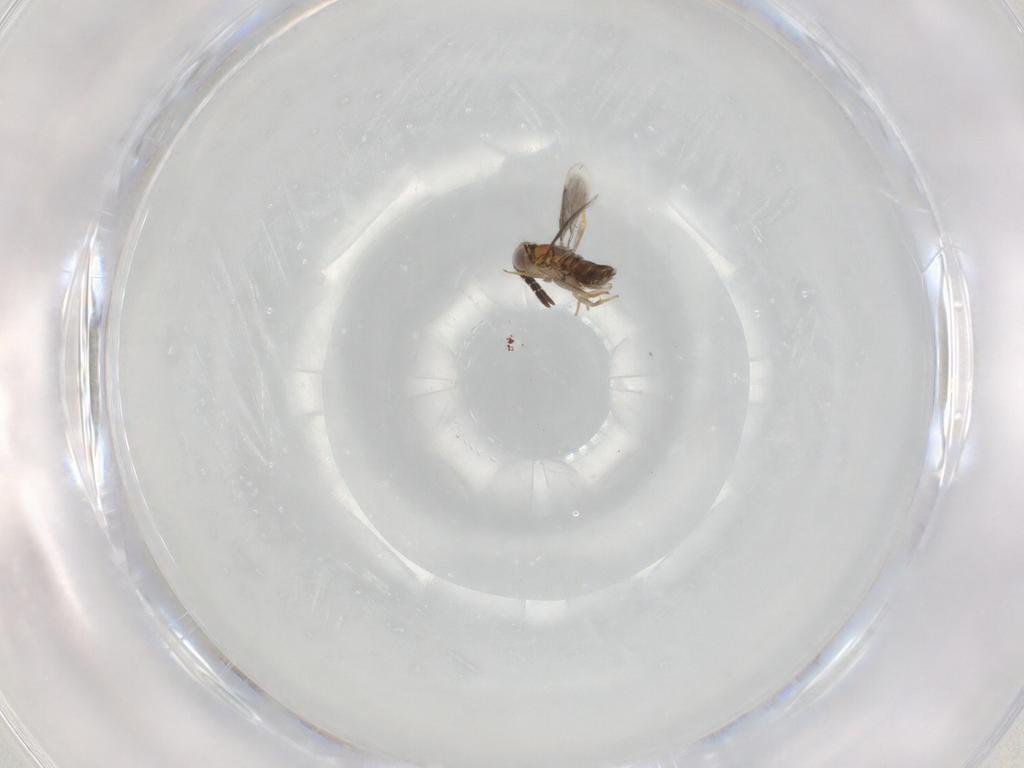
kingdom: Animalia
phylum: Arthropoda
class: Insecta
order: Hymenoptera
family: Aphelinidae
